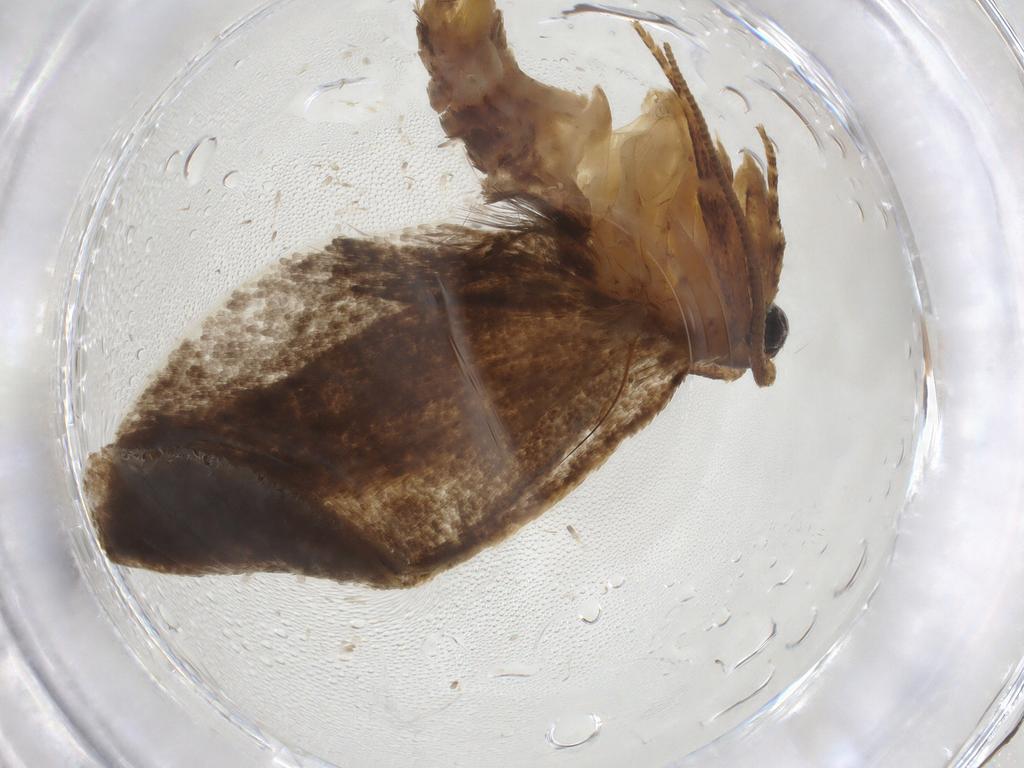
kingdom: Animalia
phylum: Arthropoda
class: Insecta
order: Lepidoptera
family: Tineidae
